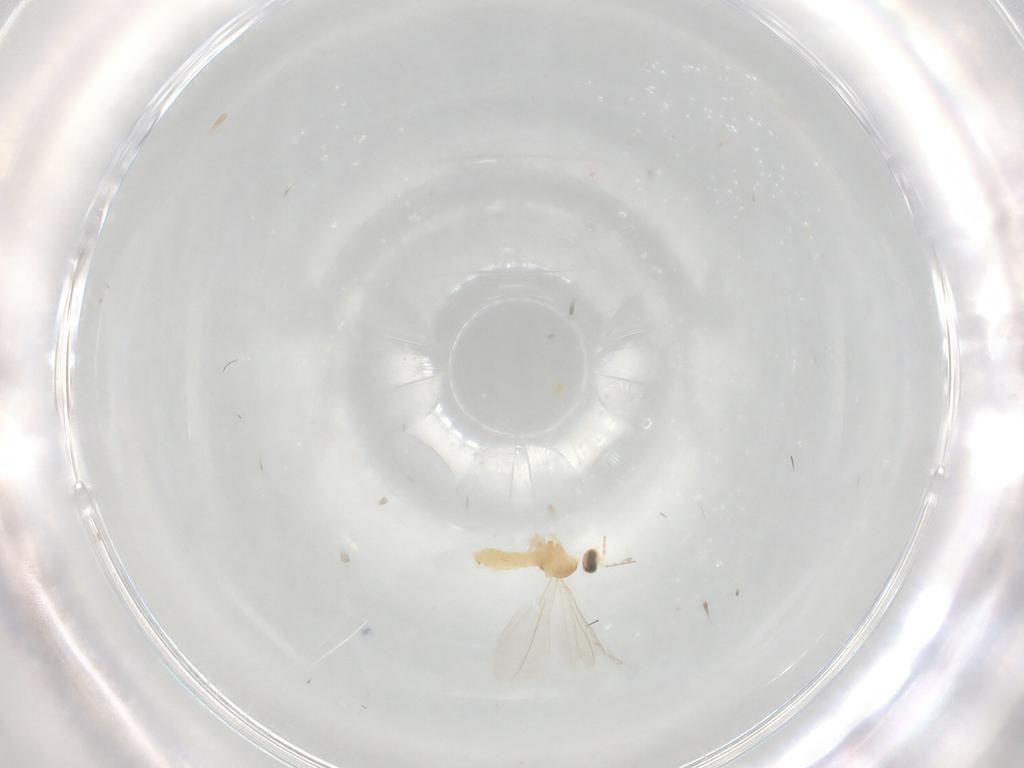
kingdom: Animalia
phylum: Arthropoda
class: Insecta
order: Diptera
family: Cecidomyiidae
